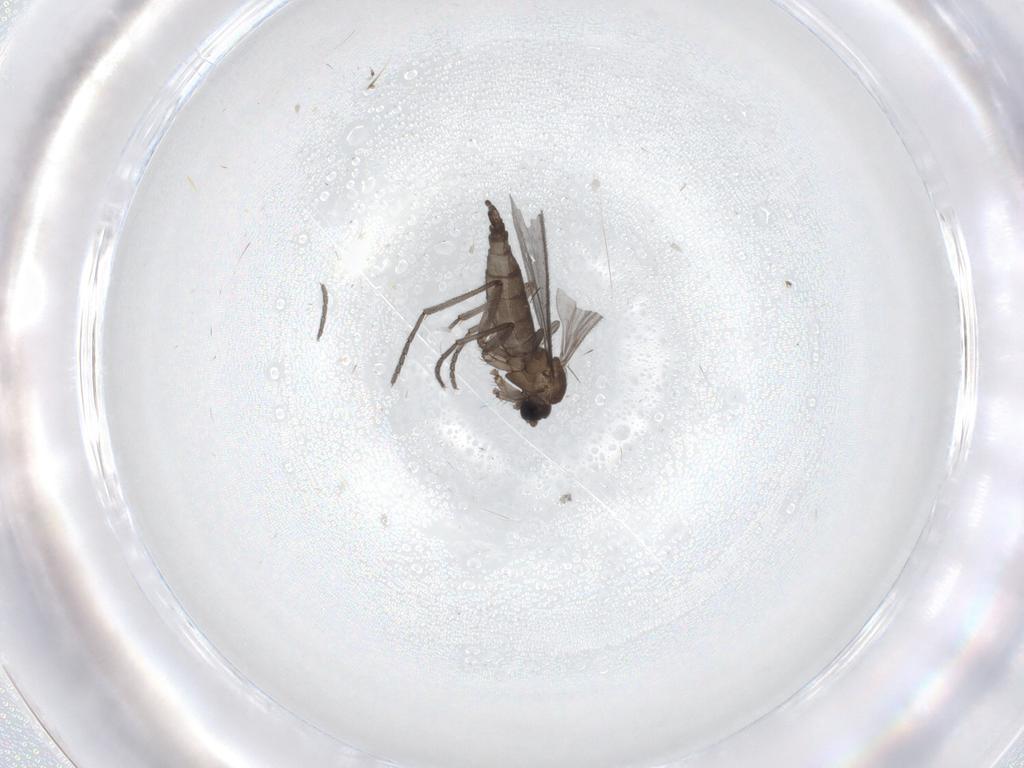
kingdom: Animalia
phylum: Arthropoda
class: Insecta
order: Diptera
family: Sciaridae
